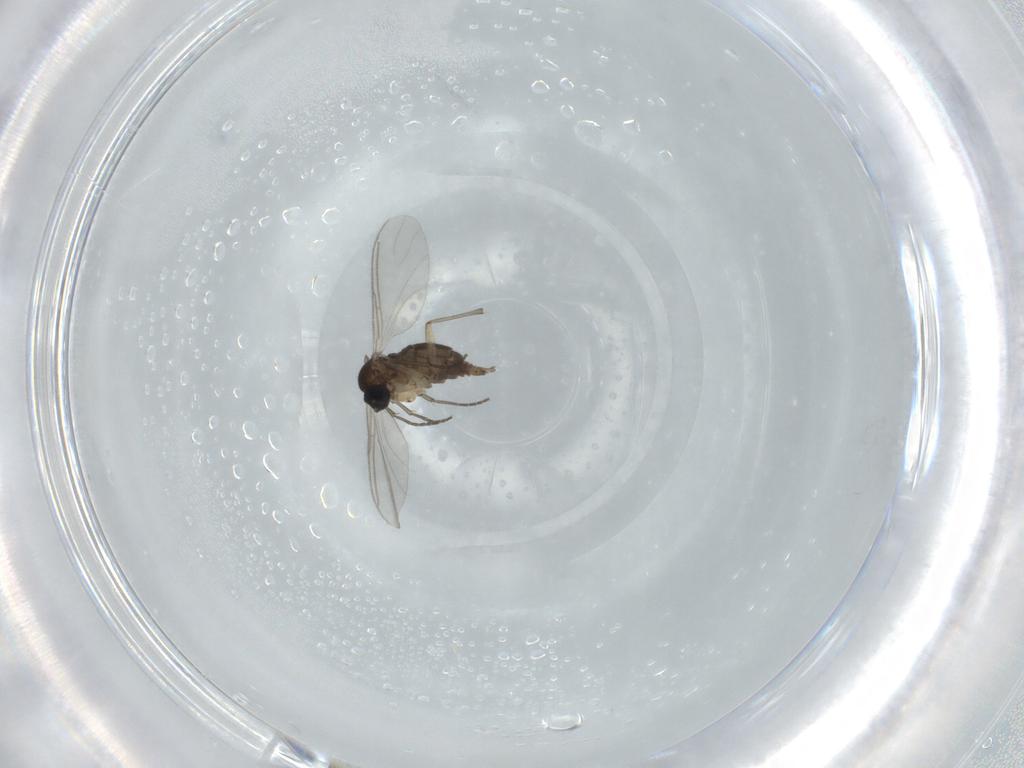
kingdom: Animalia
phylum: Arthropoda
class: Insecta
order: Diptera
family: Sciaridae
